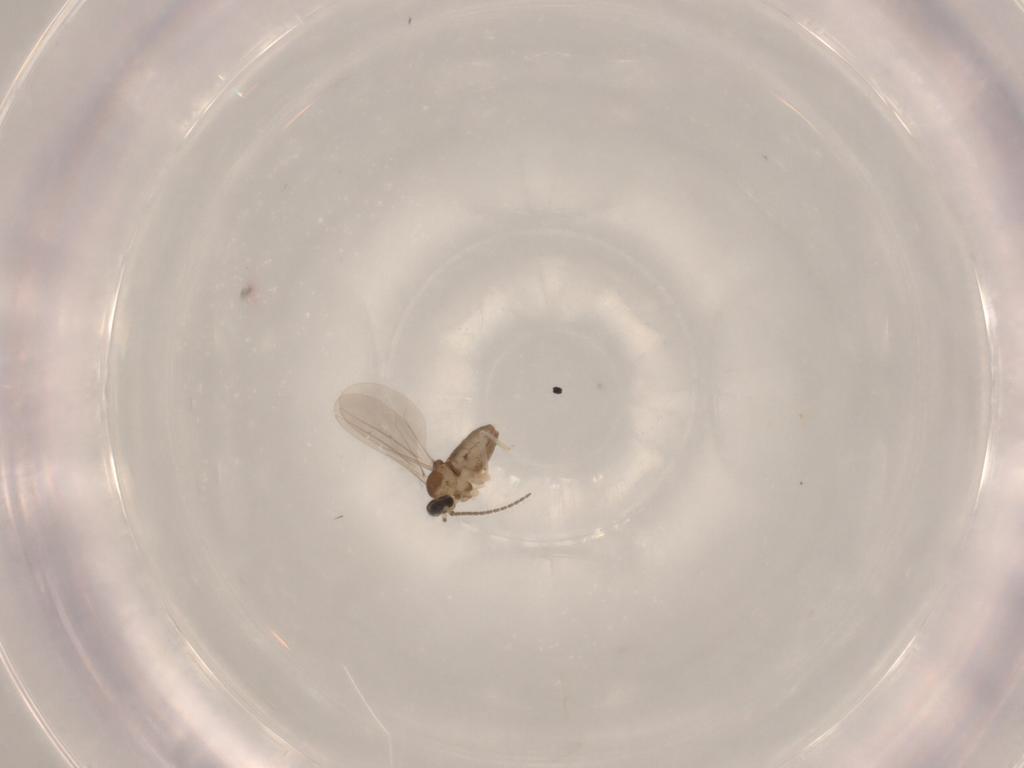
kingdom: Animalia
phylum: Arthropoda
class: Insecta
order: Diptera
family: Cecidomyiidae
